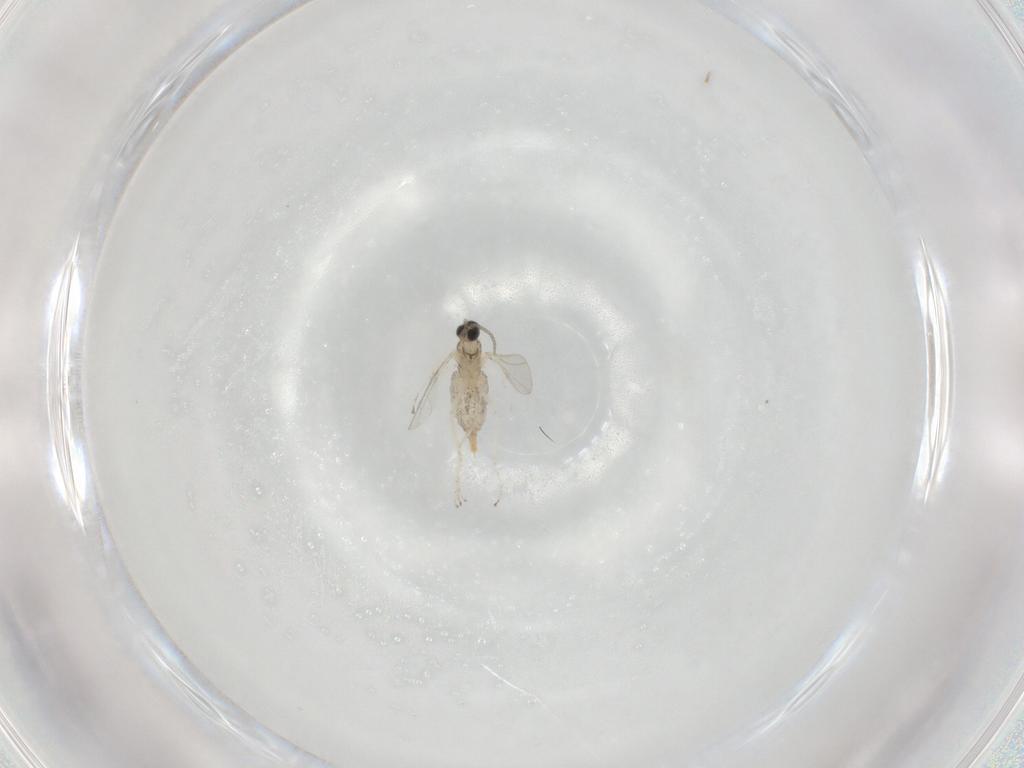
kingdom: Animalia
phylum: Arthropoda
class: Insecta
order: Diptera
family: Cecidomyiidae
